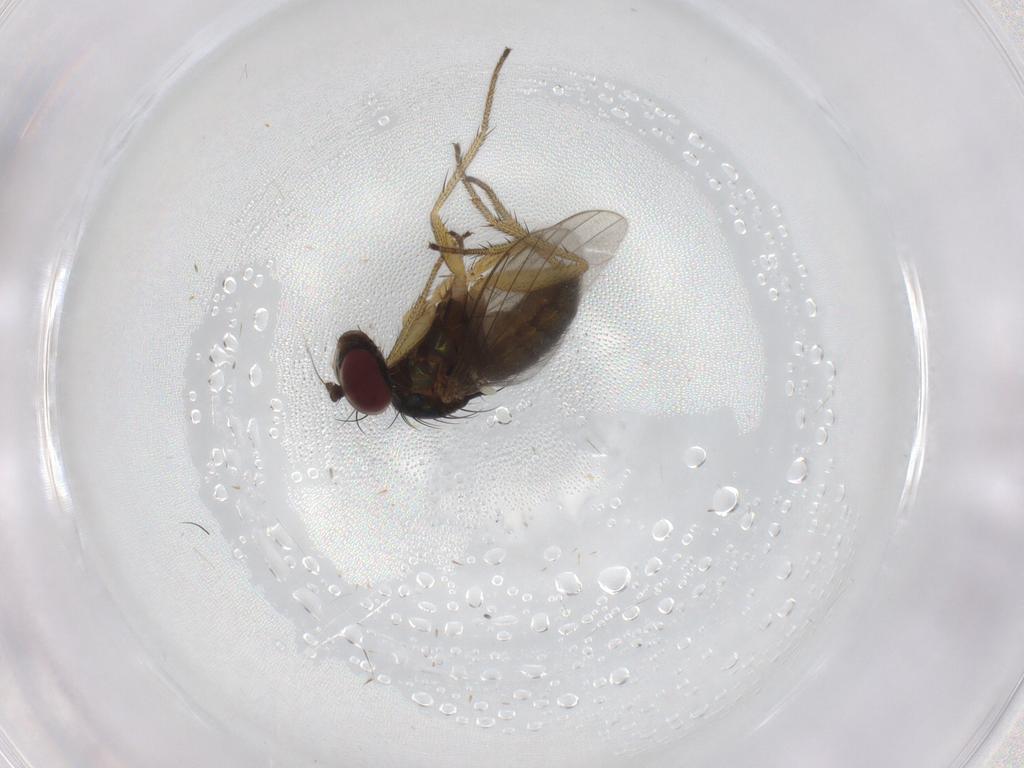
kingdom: Animalia
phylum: Arthropoda
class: Insecta
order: Diptera
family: Dolichopodidae
